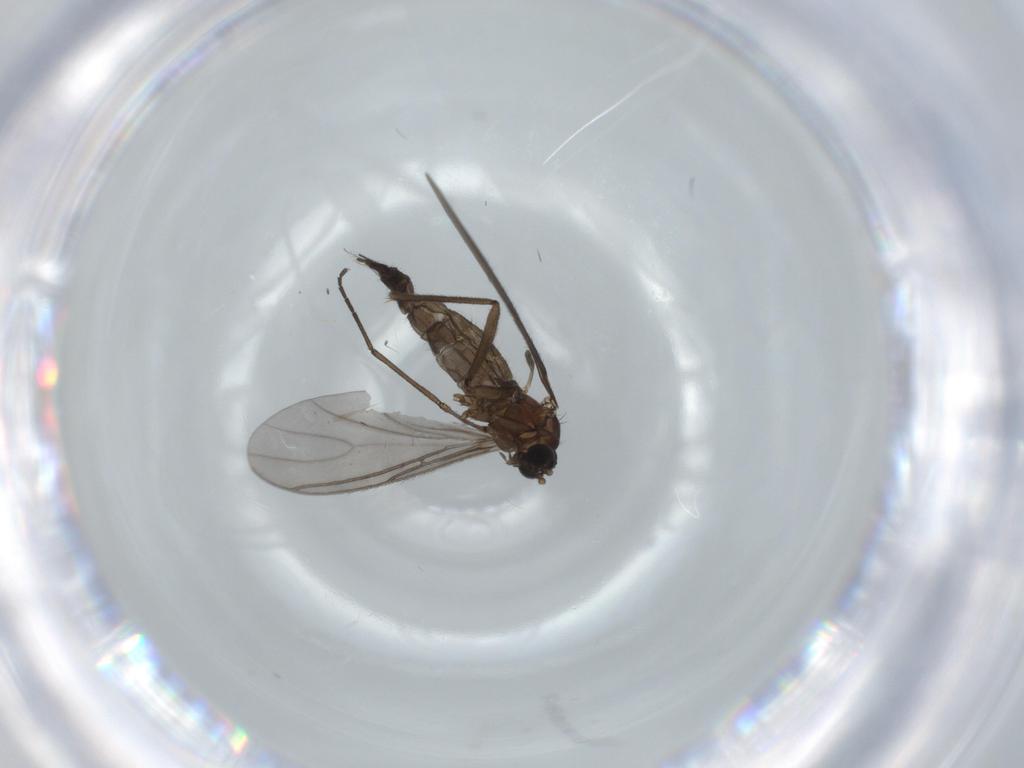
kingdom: Animalia
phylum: Arthropoda
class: Insecta
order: Diptera
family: Sciaridae
